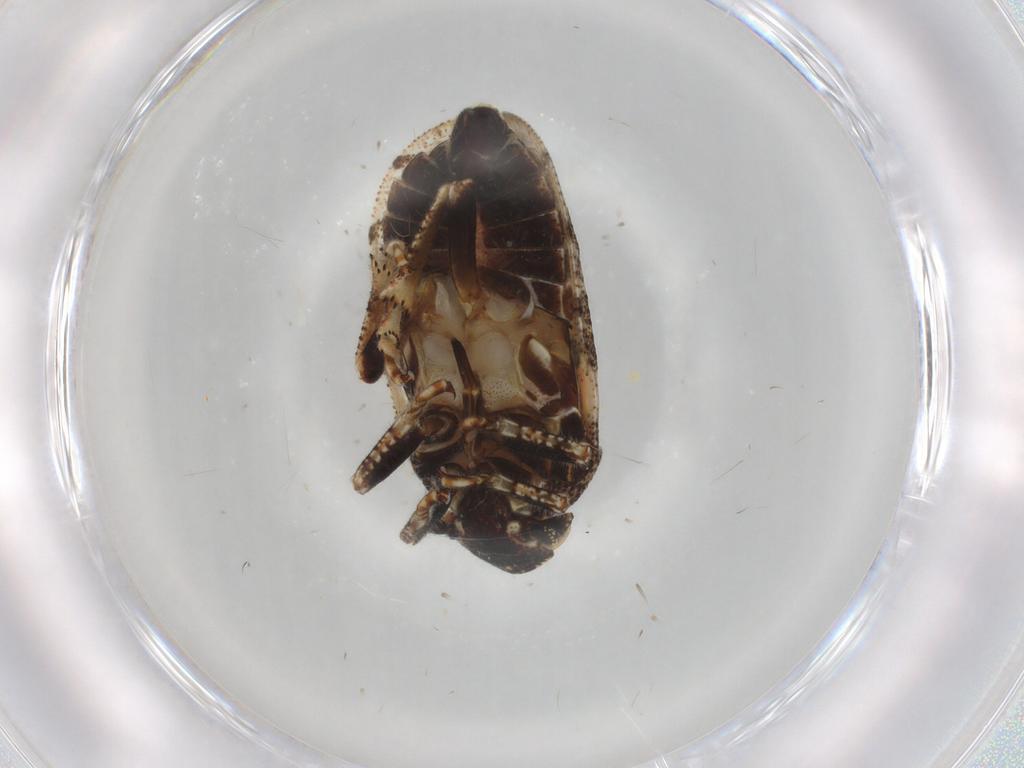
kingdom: Animalia
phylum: Arthropoda
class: Insecta
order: Hemiptera
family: Tettigometridae
